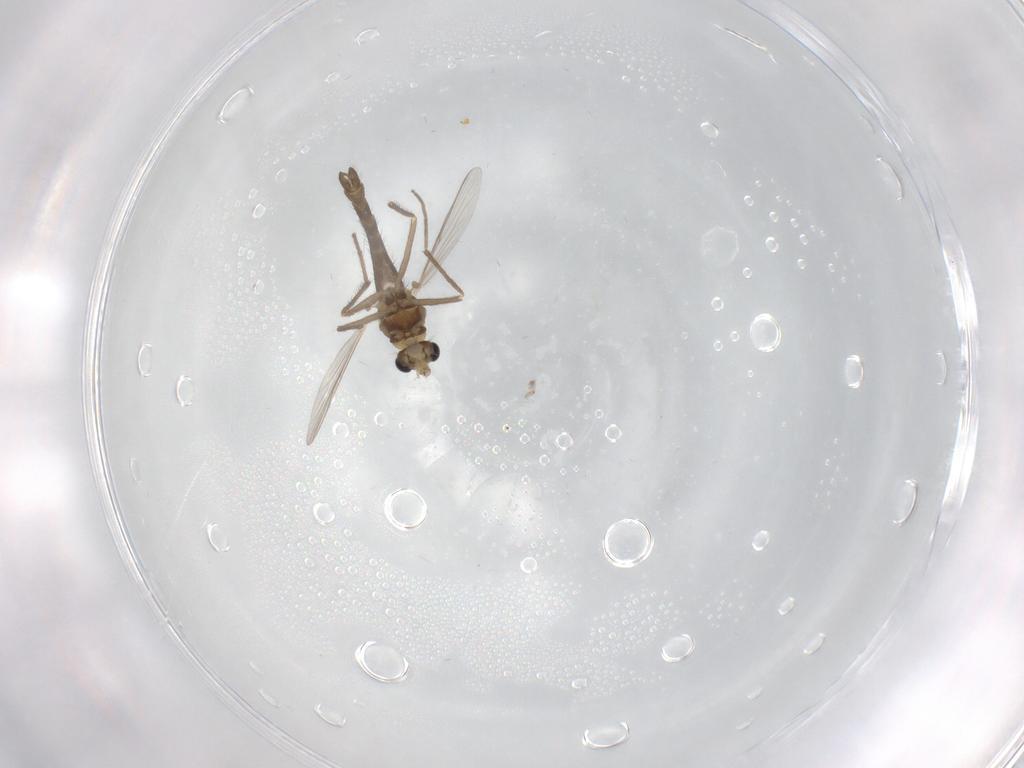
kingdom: Animalia
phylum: Arthropoda
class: Insecta
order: Diptera
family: Chironomidae
